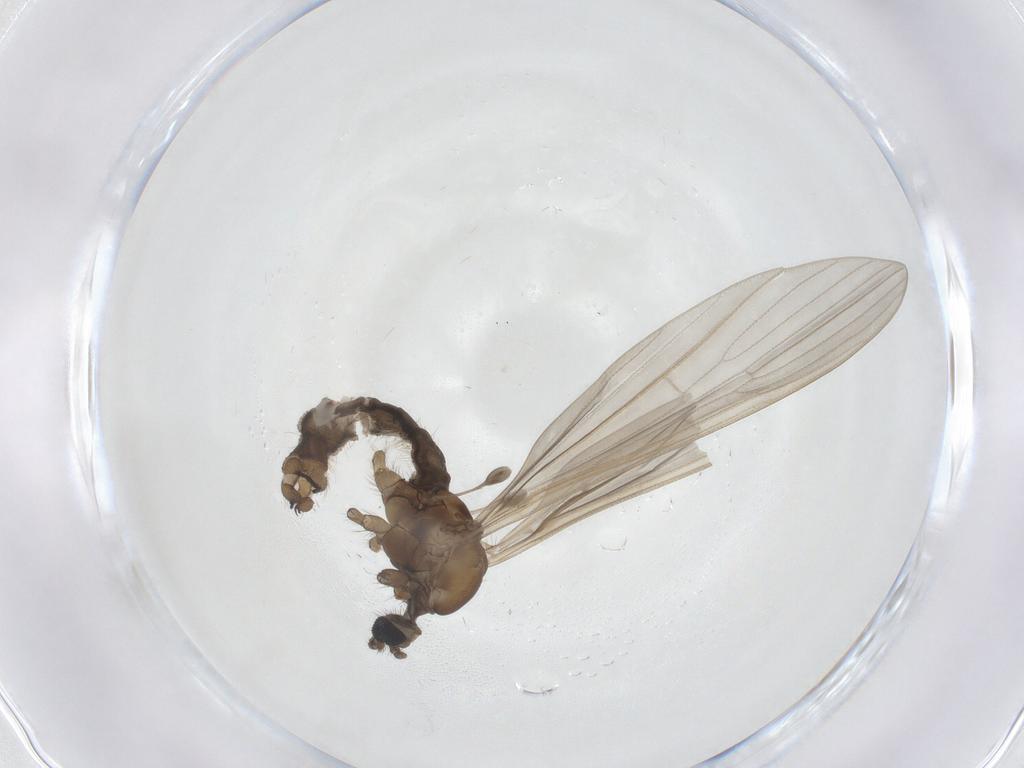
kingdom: Animalia
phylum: Arthropoda
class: Insecta
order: Diptera
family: Limoniidae
